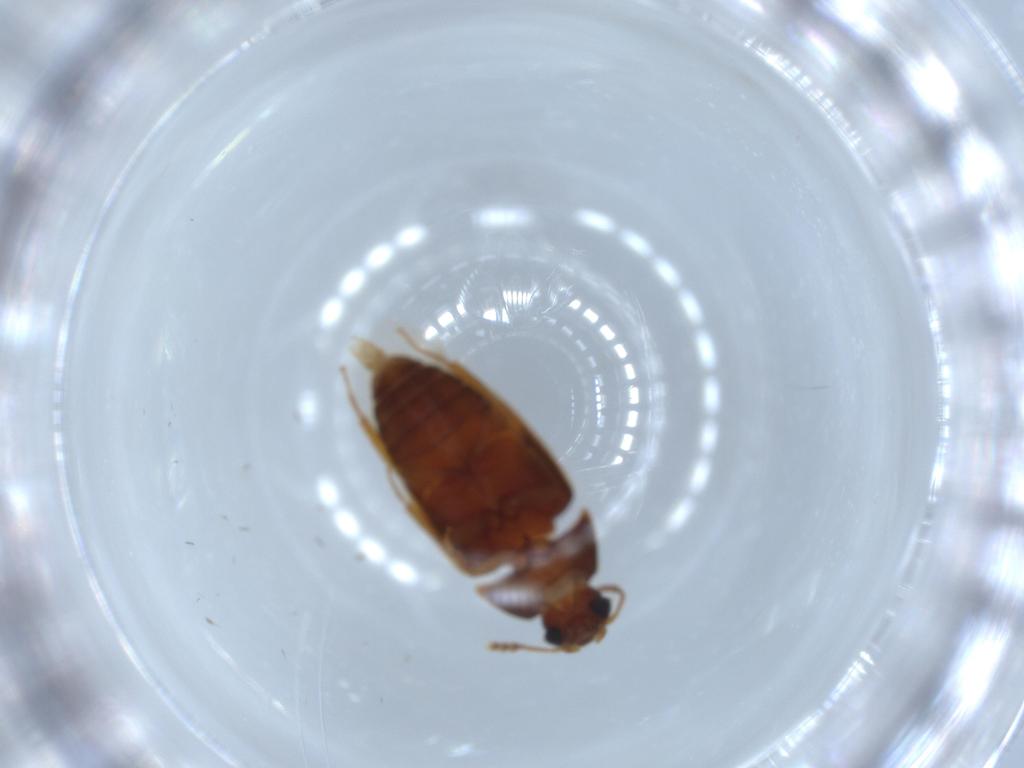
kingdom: Animalia
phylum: Arthropoda
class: Insecta
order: Coleoptera
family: Mycetophagidae
